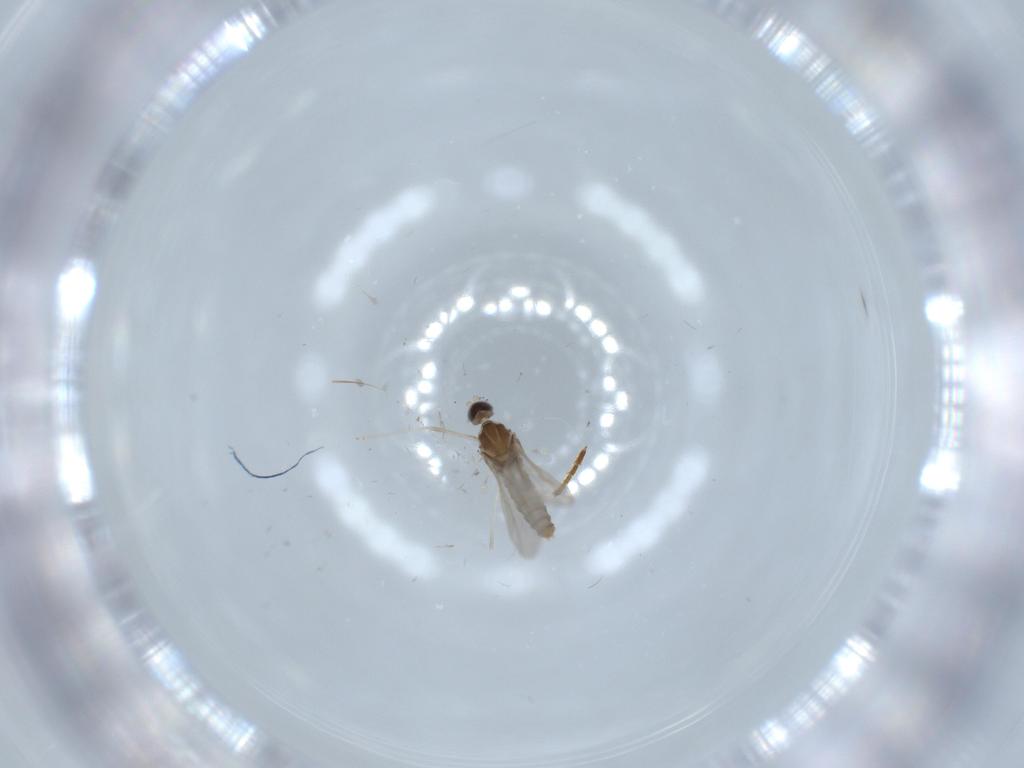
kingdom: Animalia
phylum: Arthropoda
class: Insecta
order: Diptera
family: Cecidomyiidae
